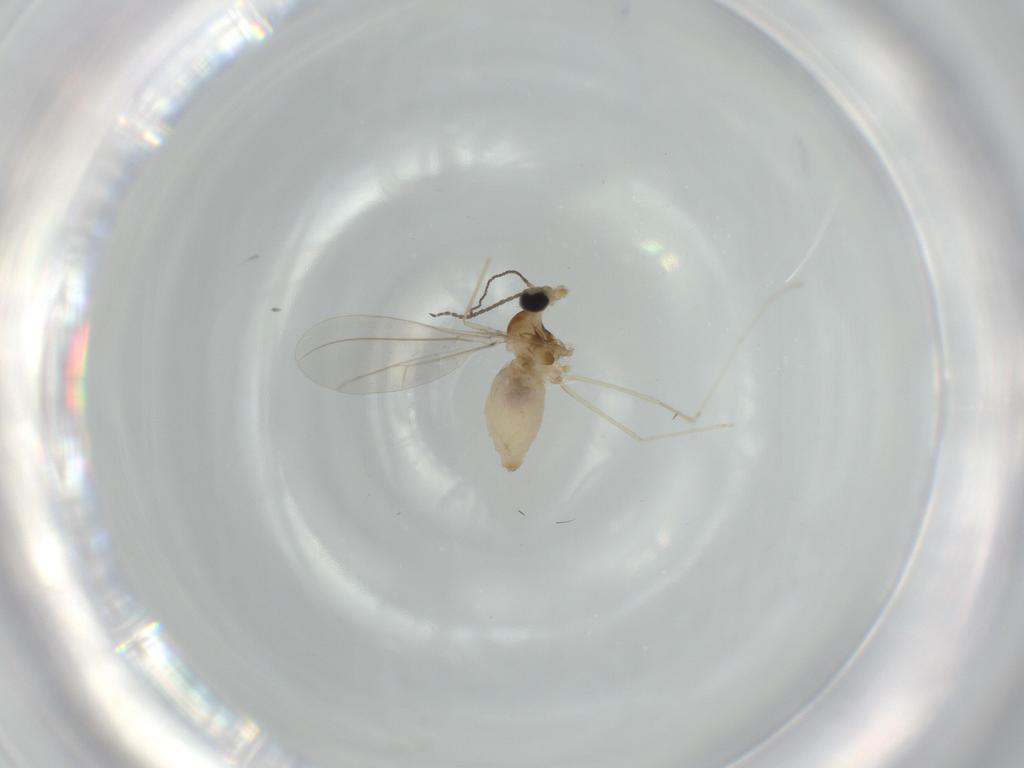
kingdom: Animalia
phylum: Arthropoda
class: Insecta
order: Diptera
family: Cecidomyiidae
